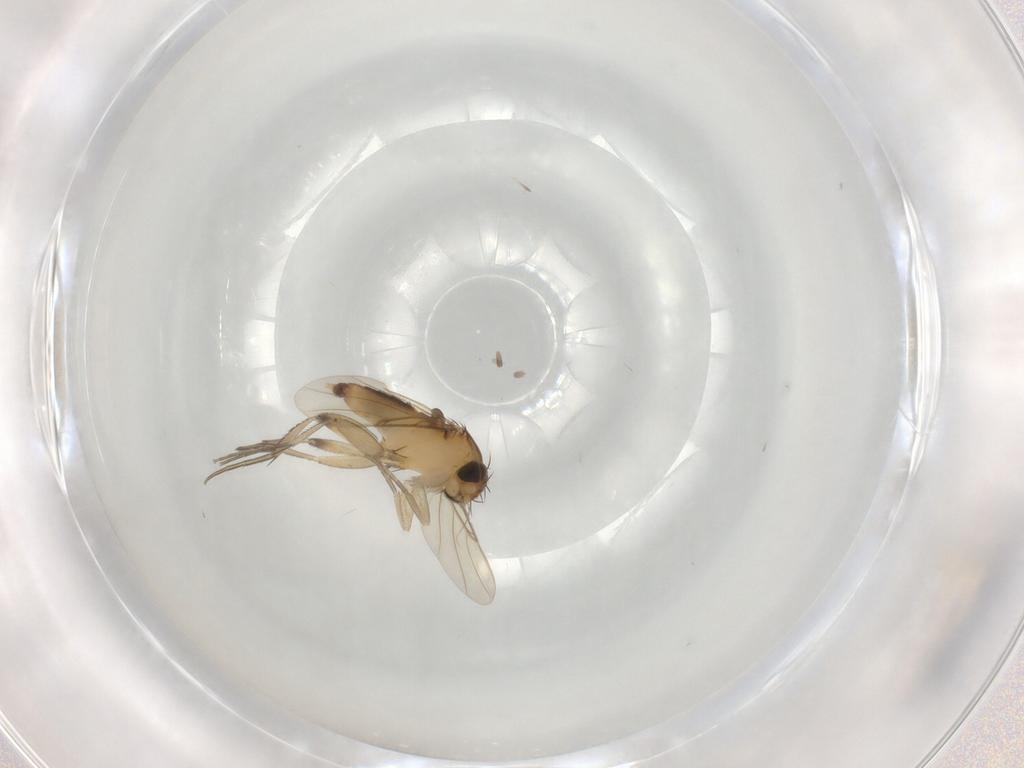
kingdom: Animalia
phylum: Arthropoda
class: Insecta
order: Diptera
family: Phoridae
